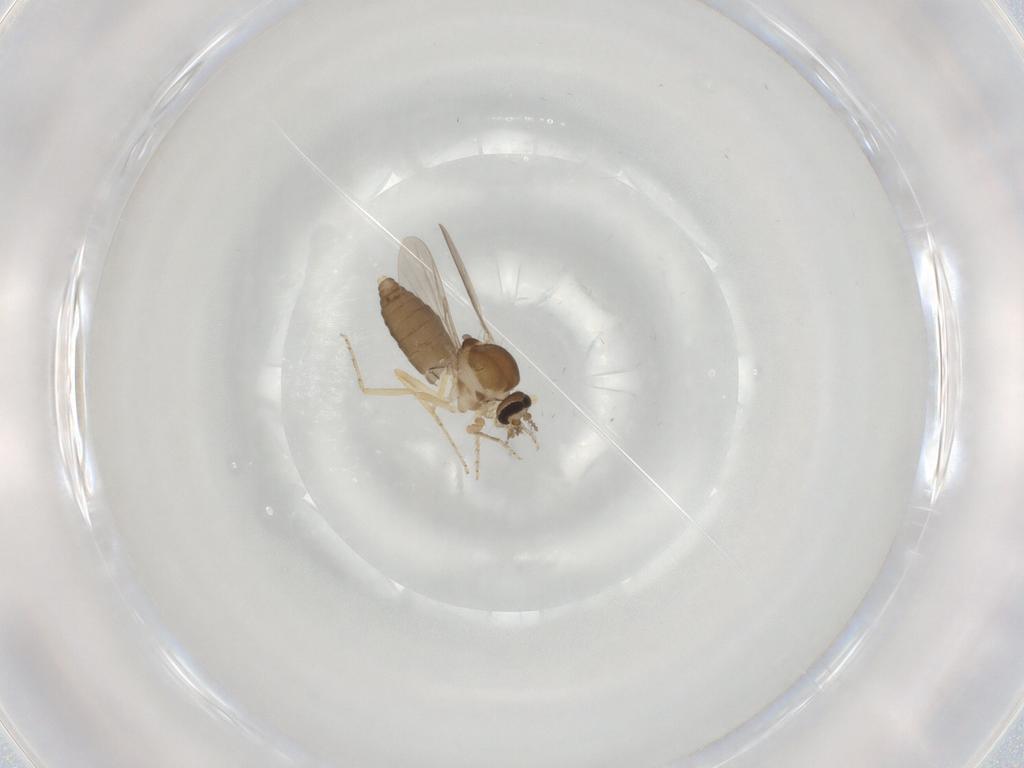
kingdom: Animalia
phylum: Arthropoda
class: Insecta
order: Diptera
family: Ceratopogonidae
